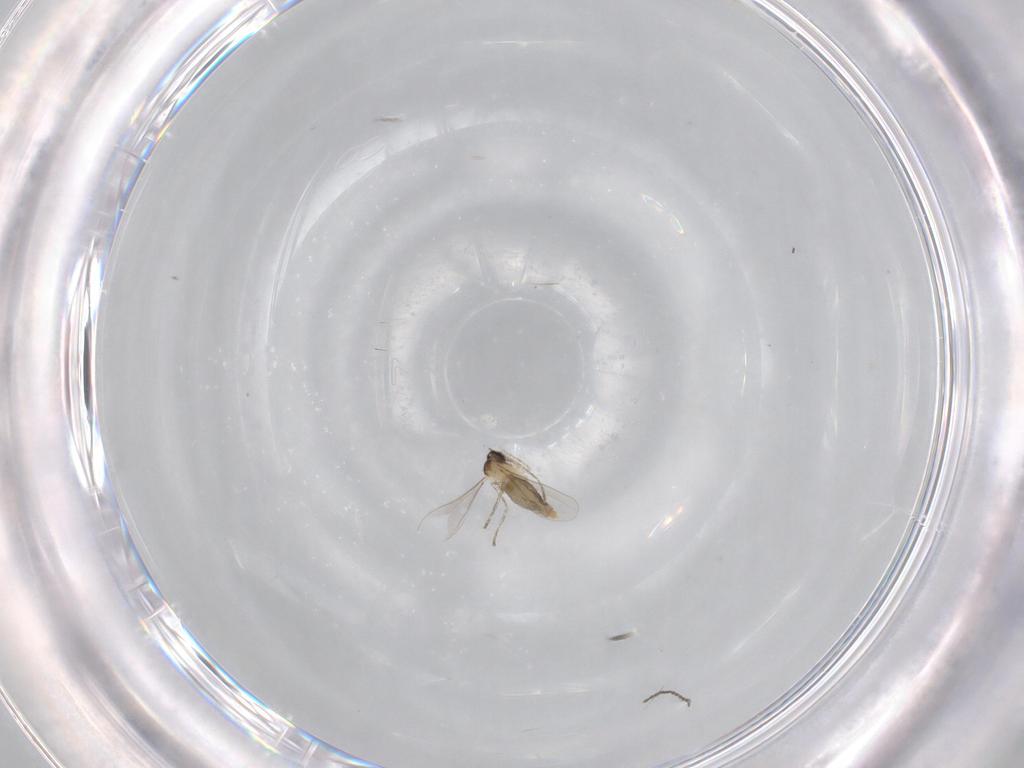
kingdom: Animalia
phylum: Arthropoda
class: Insecta
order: Diptera
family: Cecidomyiidae
